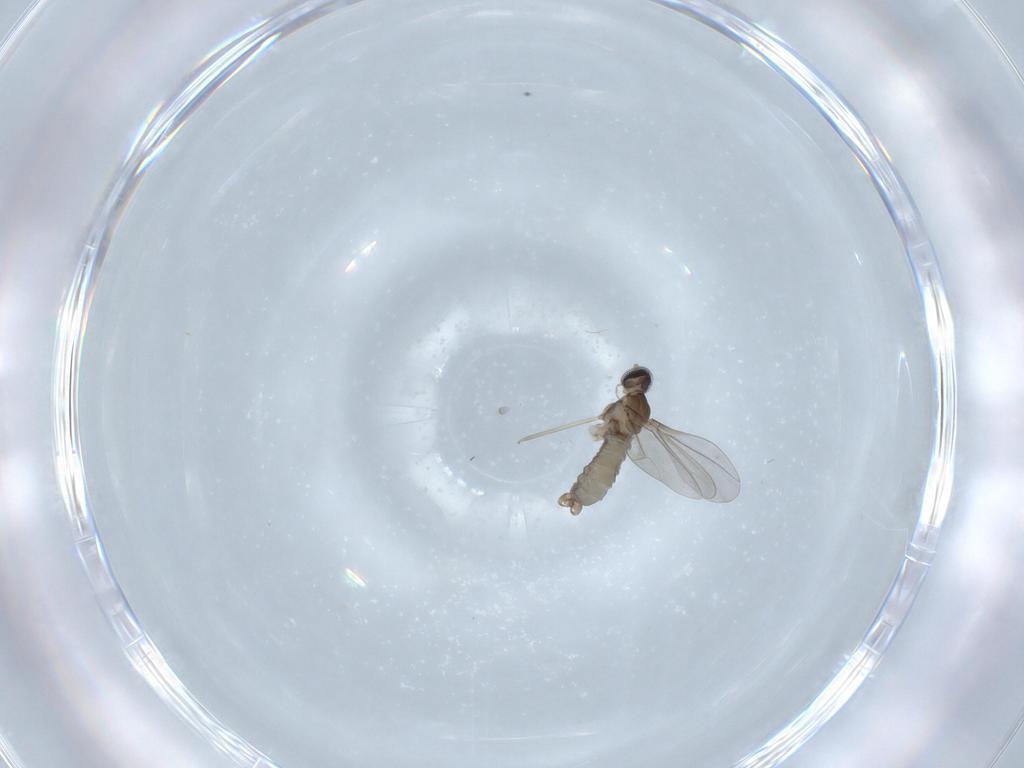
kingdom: Animalia
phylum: Arthropoda
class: Insecta
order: Diptera
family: Cecidomyiidae
